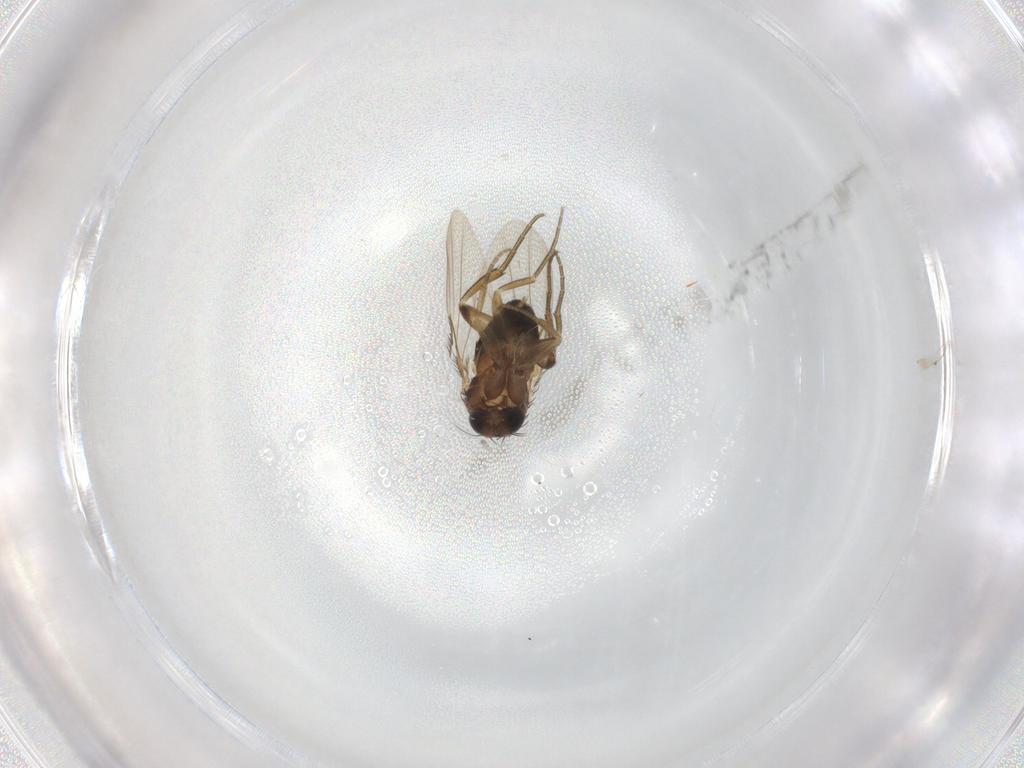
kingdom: Animalia
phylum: Arthropoda
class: Insecta
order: Diptera
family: Phoridae
